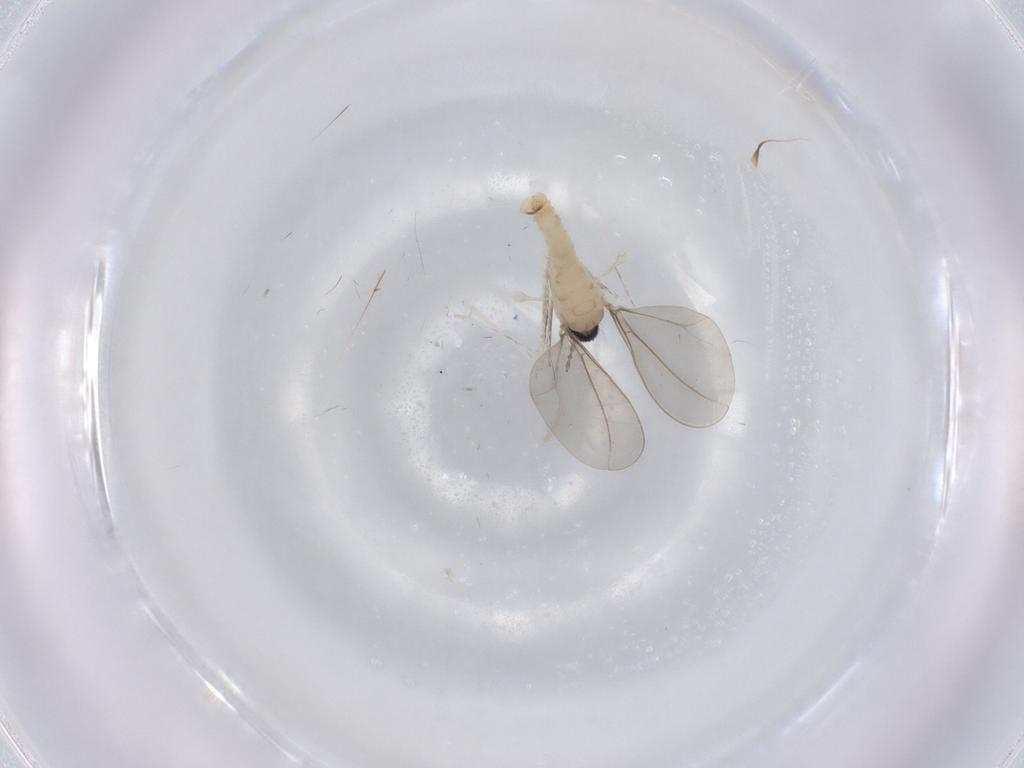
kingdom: Animalia
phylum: Arthropoda
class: Insecta
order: Diptera
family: Cecidomyiidae
